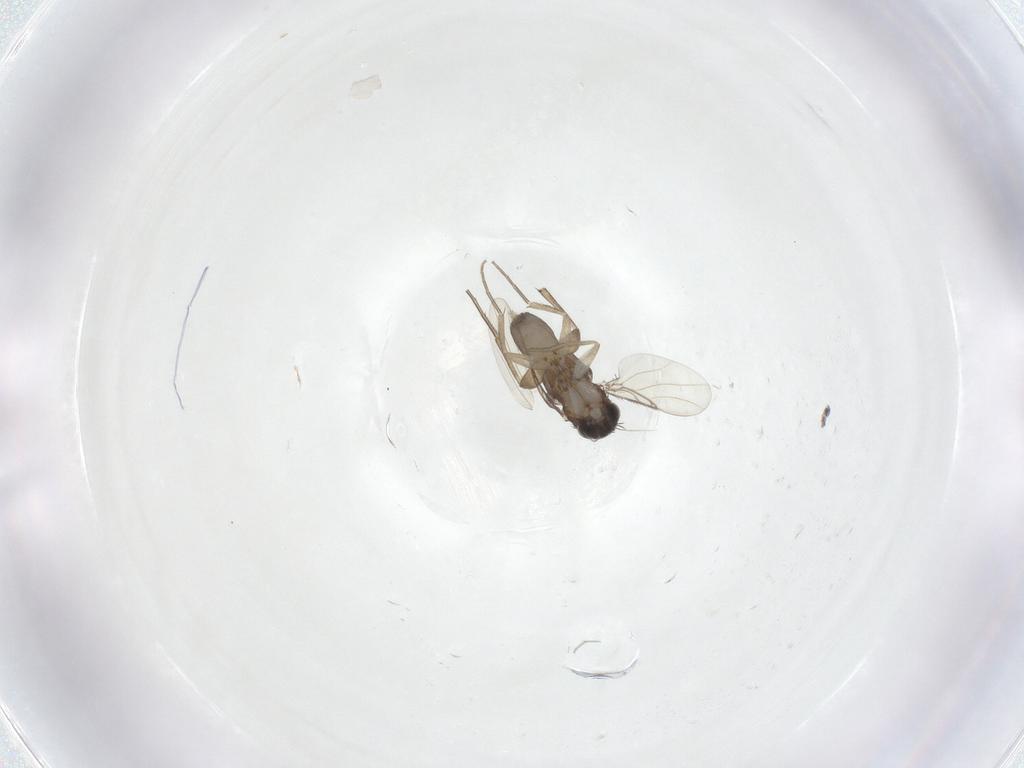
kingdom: Animalia
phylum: Arthropoda
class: Insecta
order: Diptera
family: Phoridae
